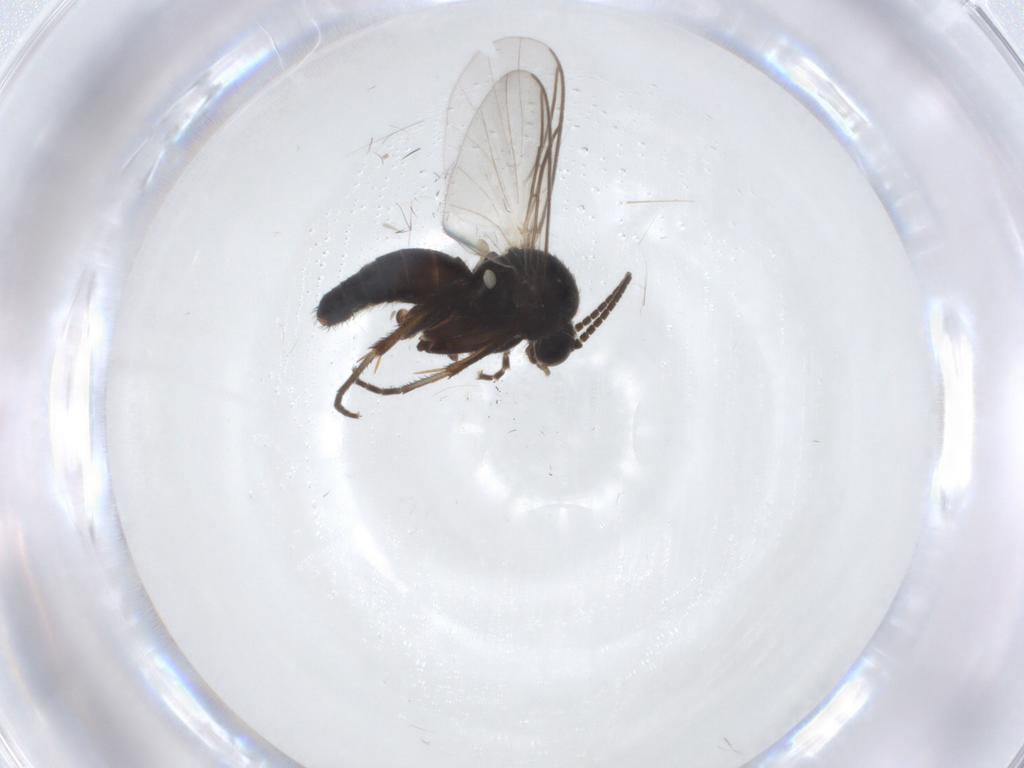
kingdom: Animalia
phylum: Arthropoda
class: Insecta
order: Diptera
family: Mycetophilidae
